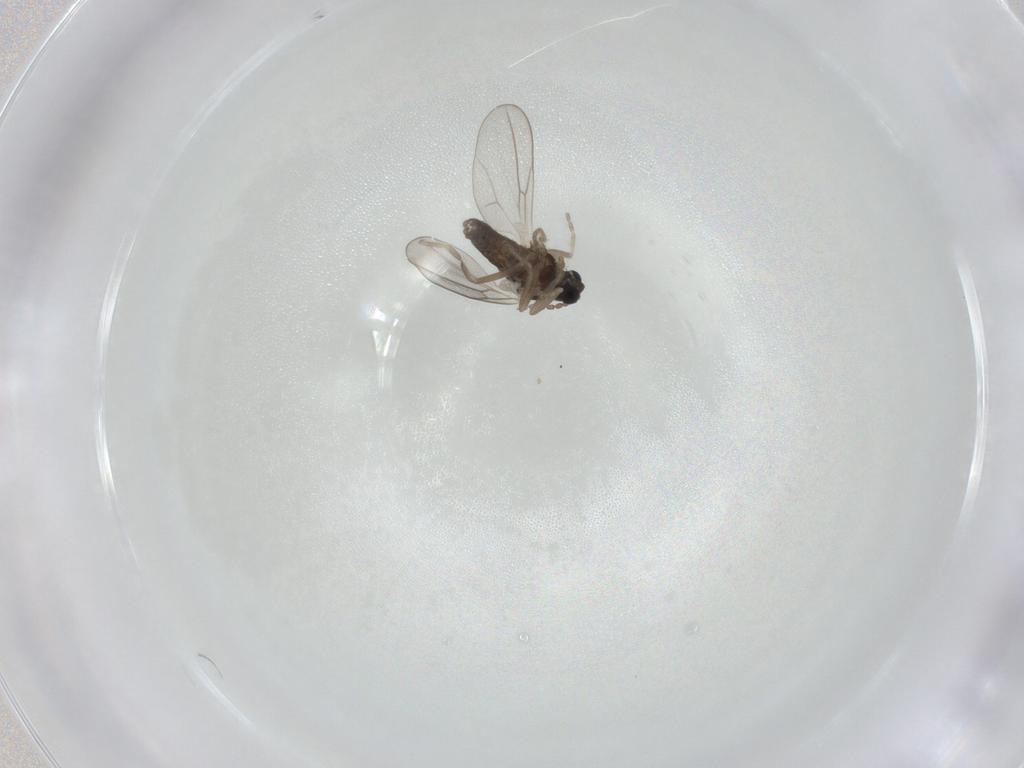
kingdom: Animalia
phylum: Arthropoda
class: Insecta
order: Diptera
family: Cecidomyiidae
